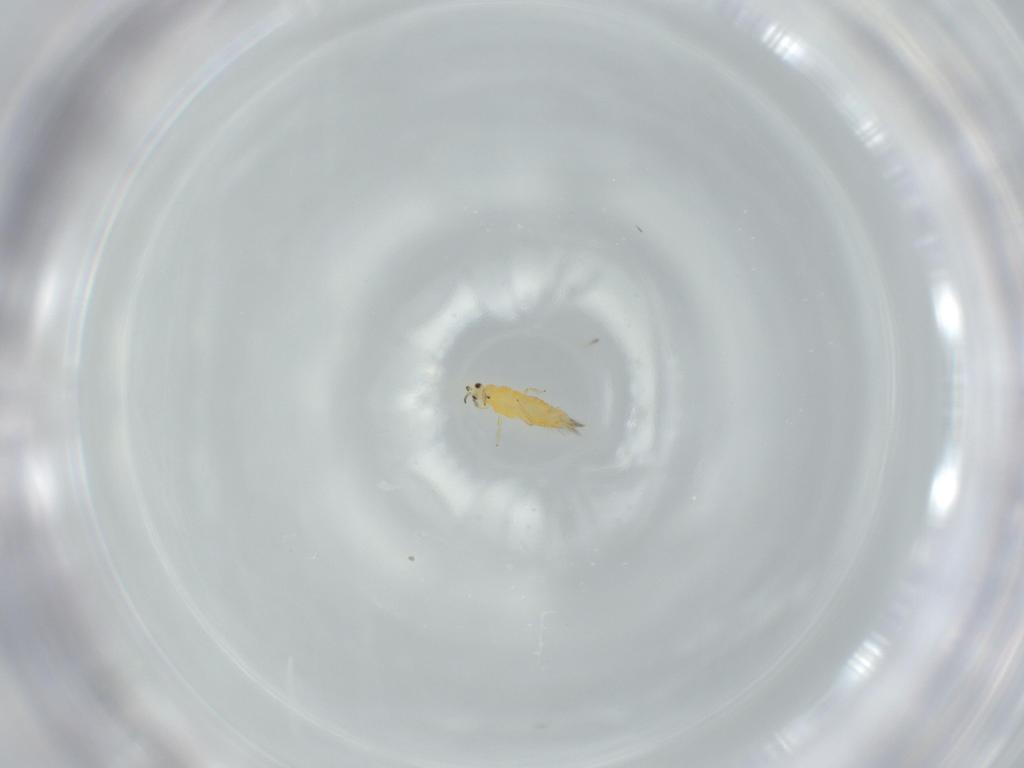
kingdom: Animalia
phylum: Arthropoda
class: Insecta
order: Thysanoptera
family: Thripidae
